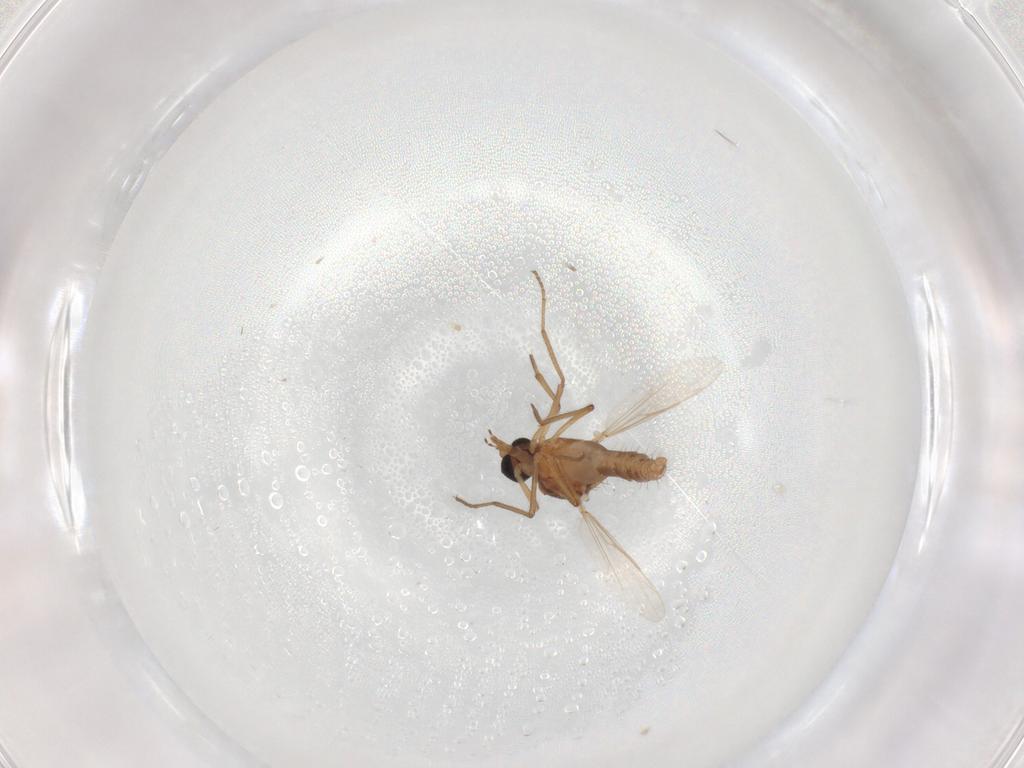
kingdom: Animalia
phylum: Arthropoda
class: Insecta
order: Diptera
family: Ceratopogonidae
